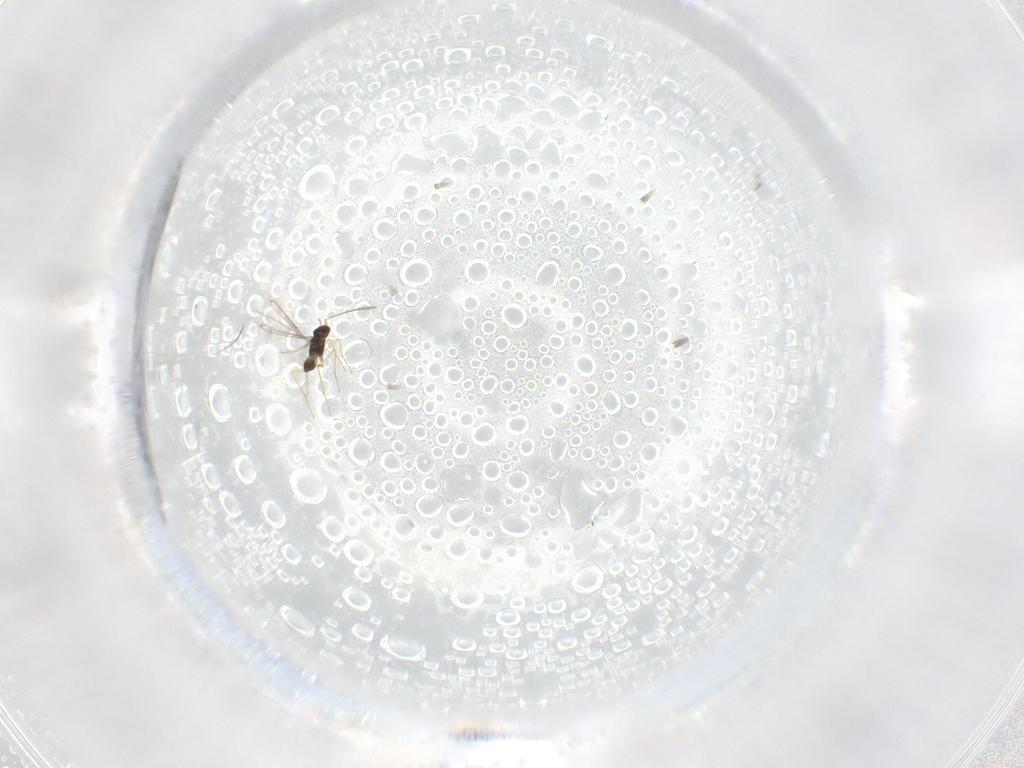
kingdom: Animalia
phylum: Arthropoda
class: Insecta
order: Hymenoptera
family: Mymaridae
